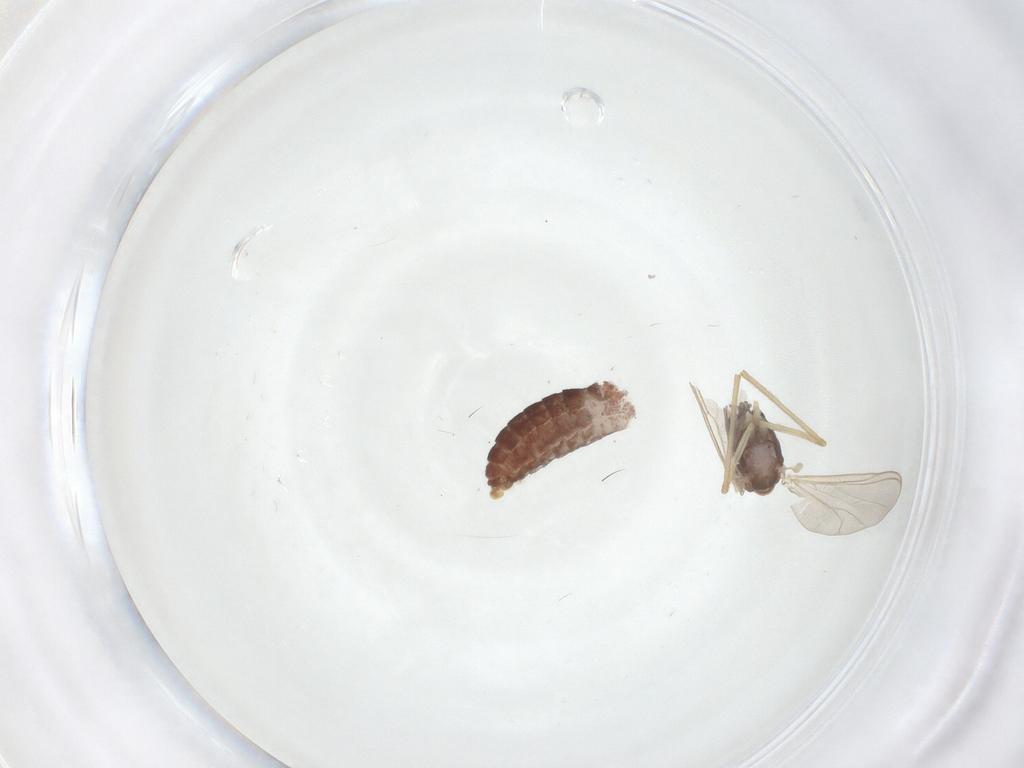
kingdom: Animalia
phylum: Arthropoda
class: Insecta
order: Diptera
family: Chironomidae
